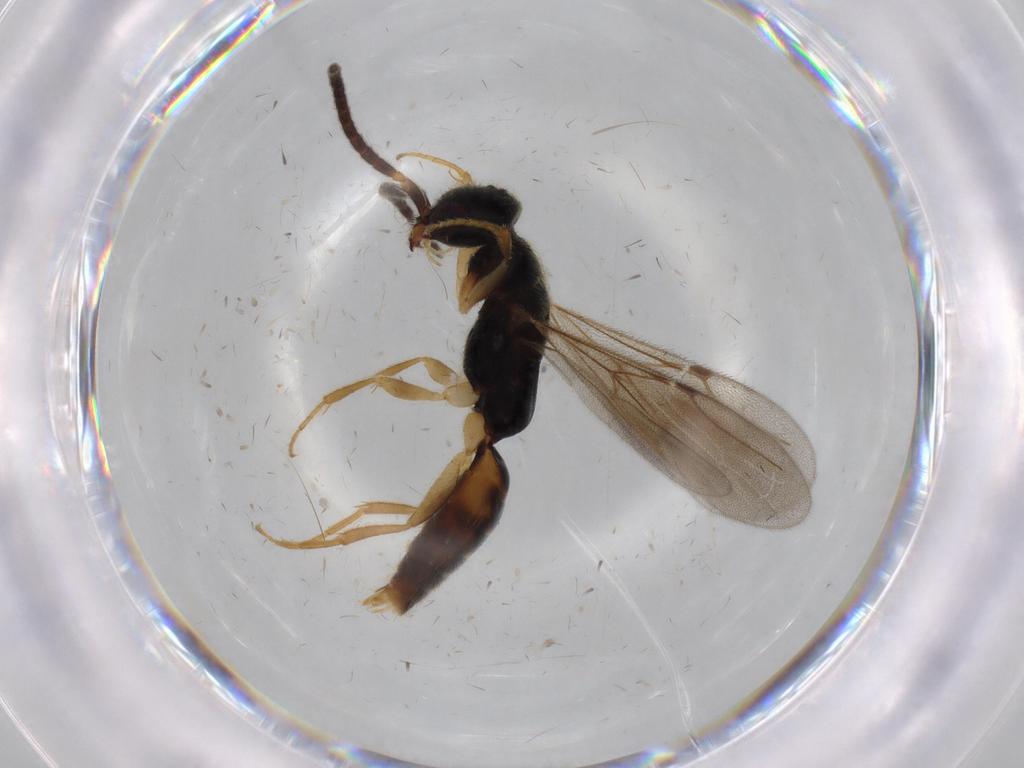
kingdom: Animalia
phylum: Arthropoda
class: Insecta
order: Hymenoptera
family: Bethylidae
